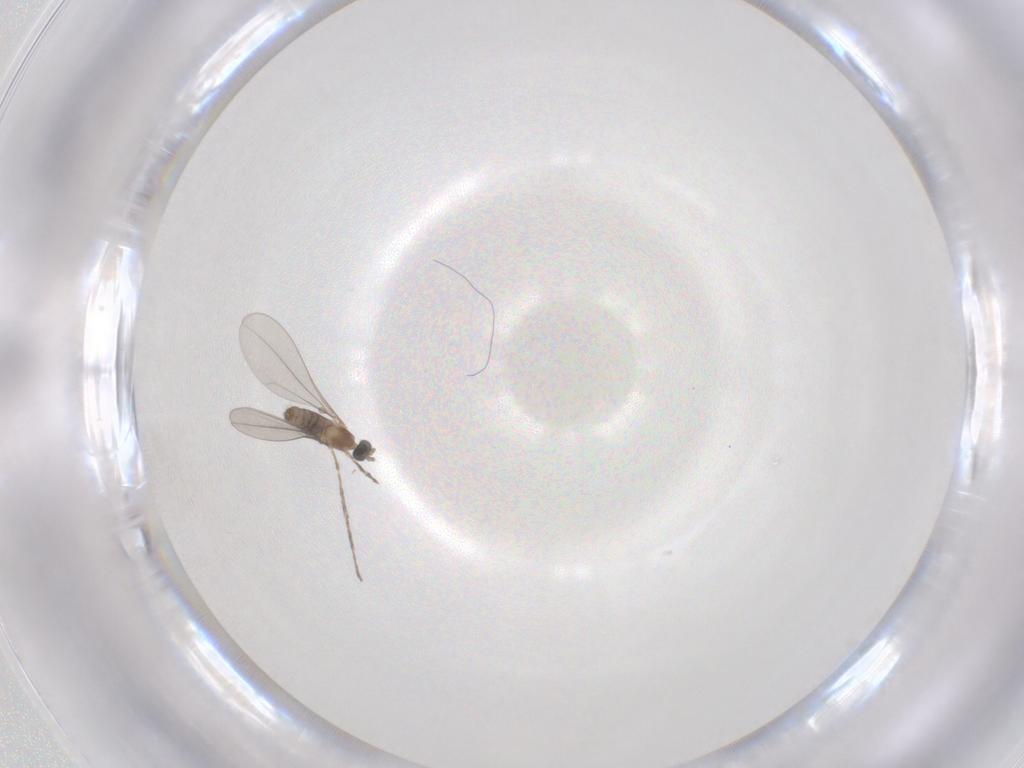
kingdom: Animalia
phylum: Arthropoda
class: Insecta
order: Diptera
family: Cecidomyiidae
